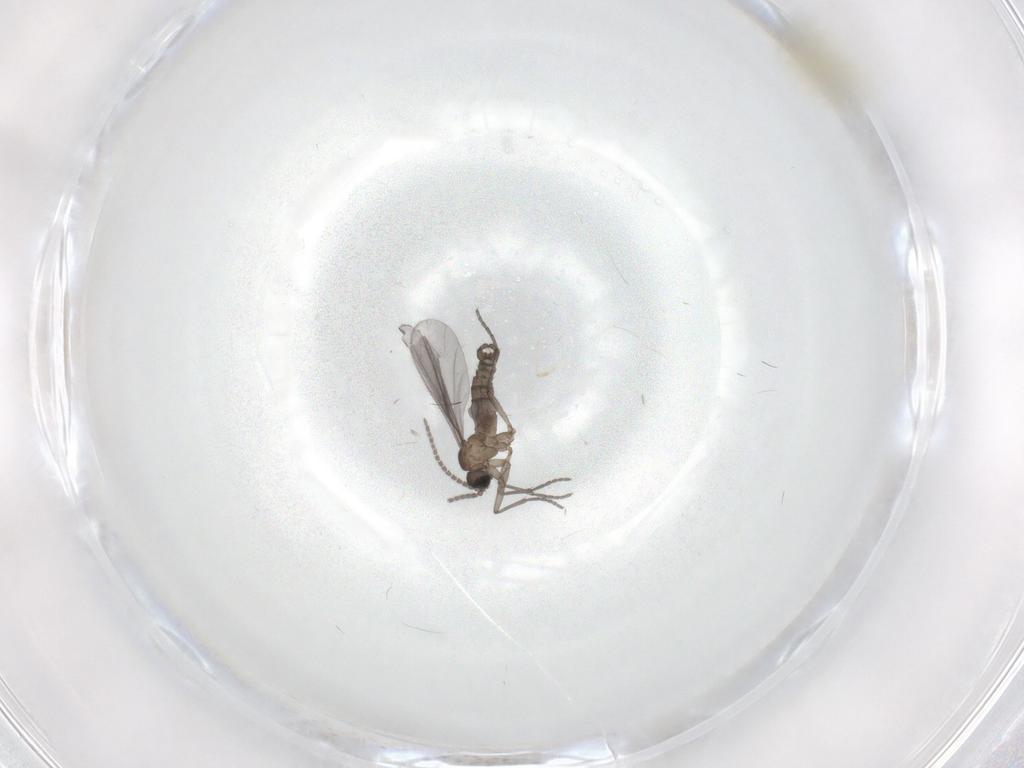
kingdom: Animalia
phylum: Arthropoda
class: Insecta
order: Diptera
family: Sciaridae
